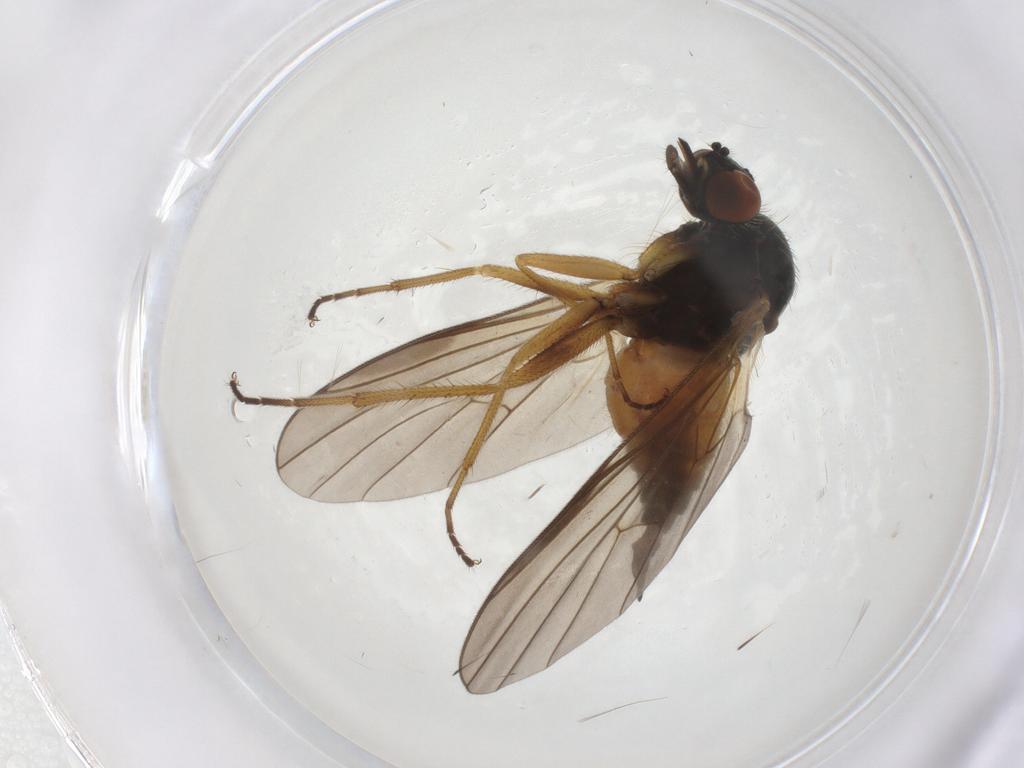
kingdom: Animalia
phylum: Arthropoda
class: Insecta
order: Diptera
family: Empididae
